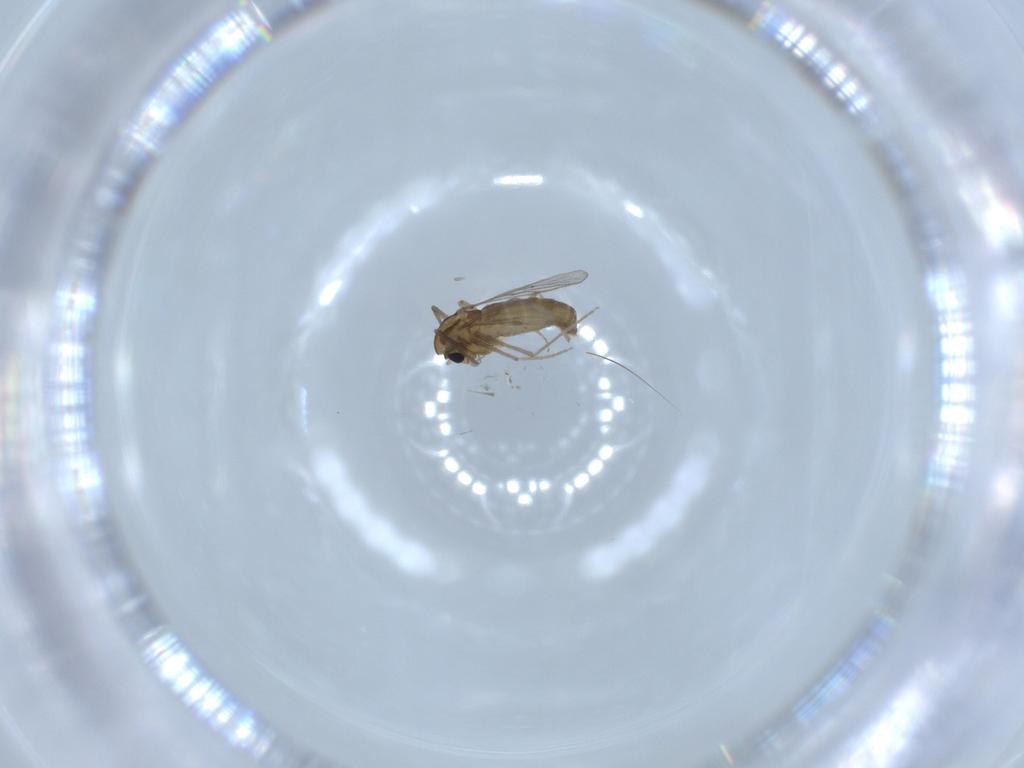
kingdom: Animalia
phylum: Arthropoda
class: Insecta
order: Diptera
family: Chironomidae
